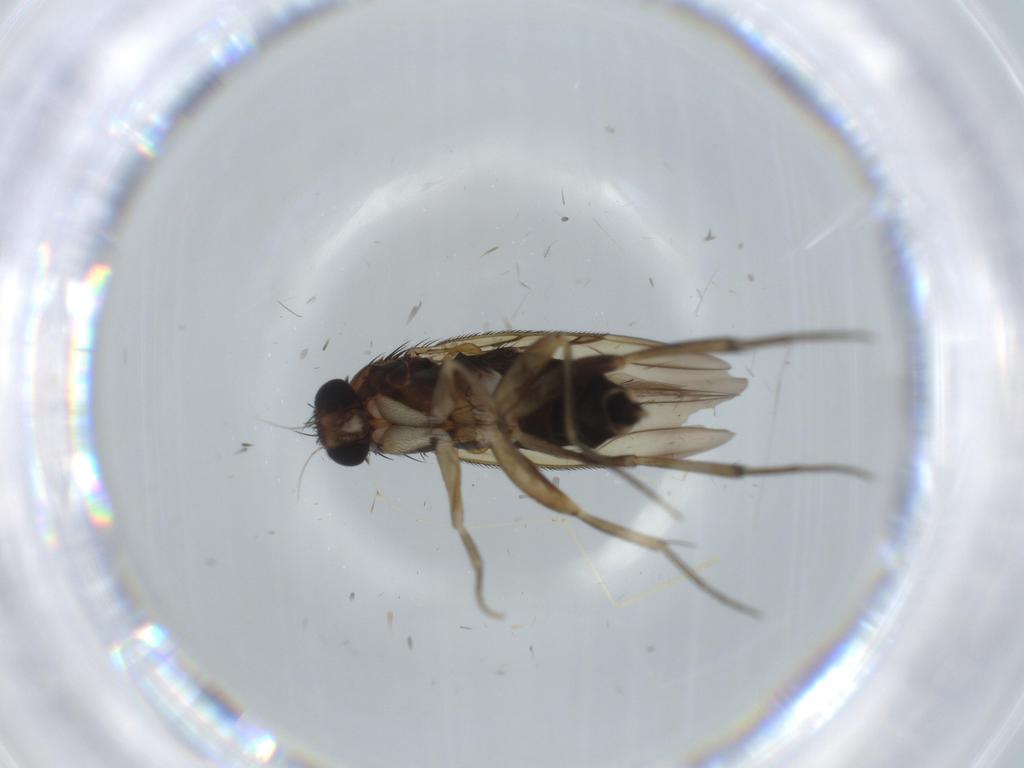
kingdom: Animalia
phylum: Arthropoda
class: Insecta
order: Diptera
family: Phoridae
